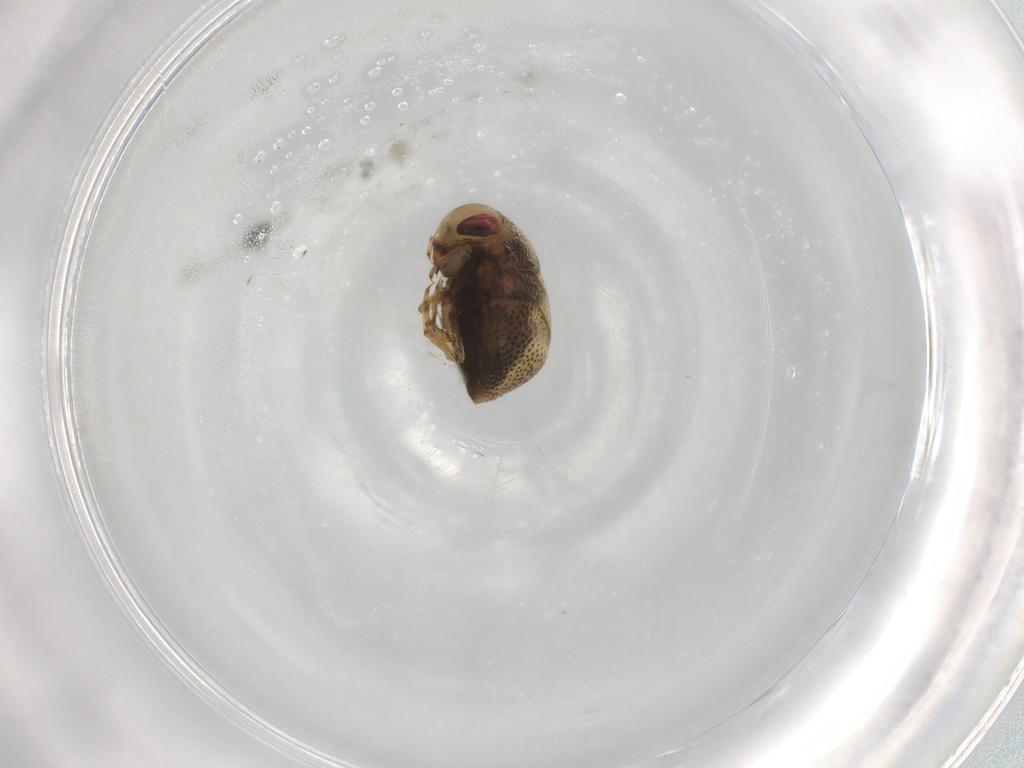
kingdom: Animalia
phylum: Arthropoda
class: Insecta
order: Hemiptera
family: Pleidae
